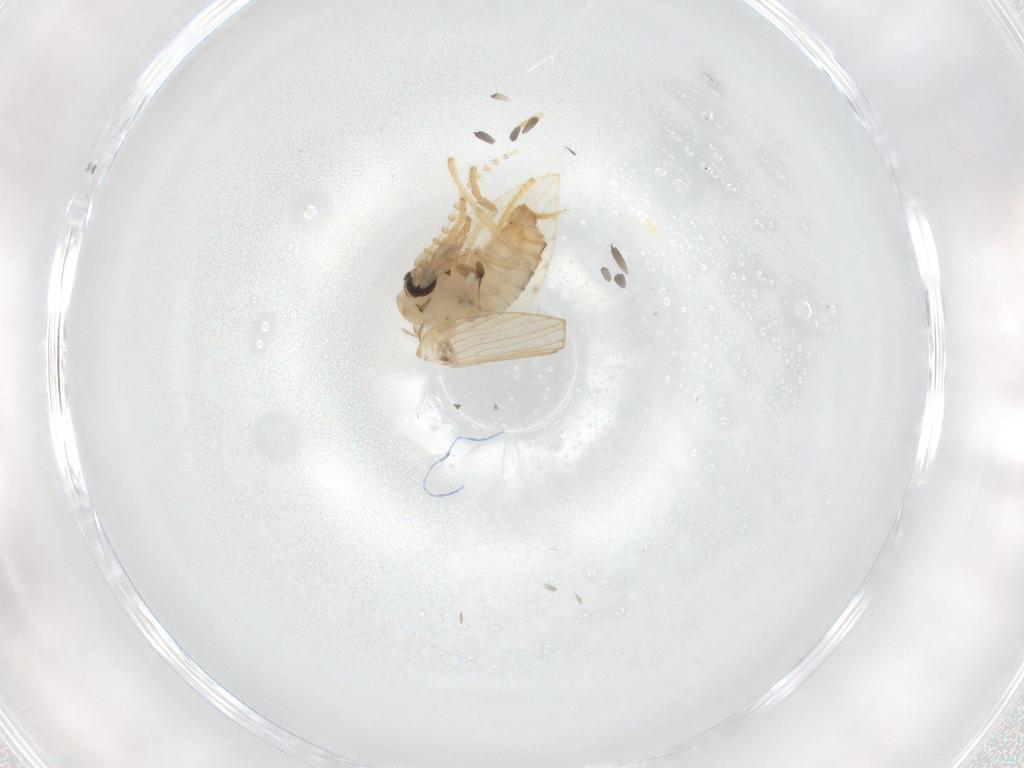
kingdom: Animalia
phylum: Arthropoda
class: Insecta
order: Diptera
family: Psychodidae
